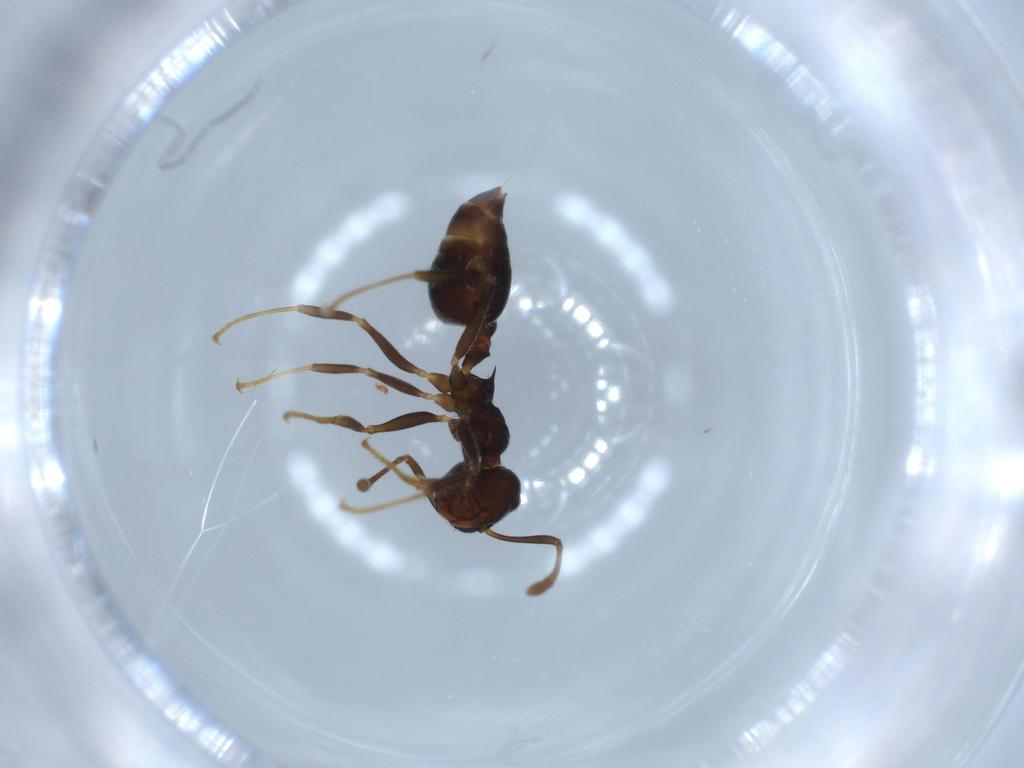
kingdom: Animalia
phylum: Arthropoda
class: Insecta
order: Hymenoptera
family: Formicidae
